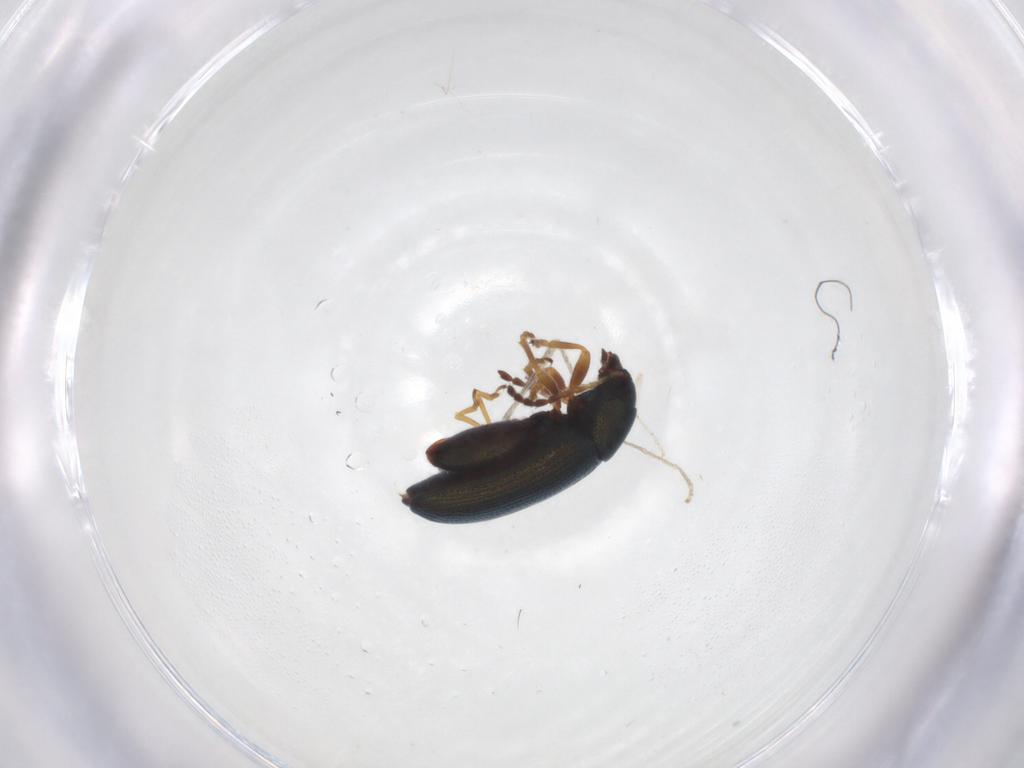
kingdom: Animalia
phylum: Arthropoda
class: Insecta
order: Coleoptera
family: Chrysomelidae
